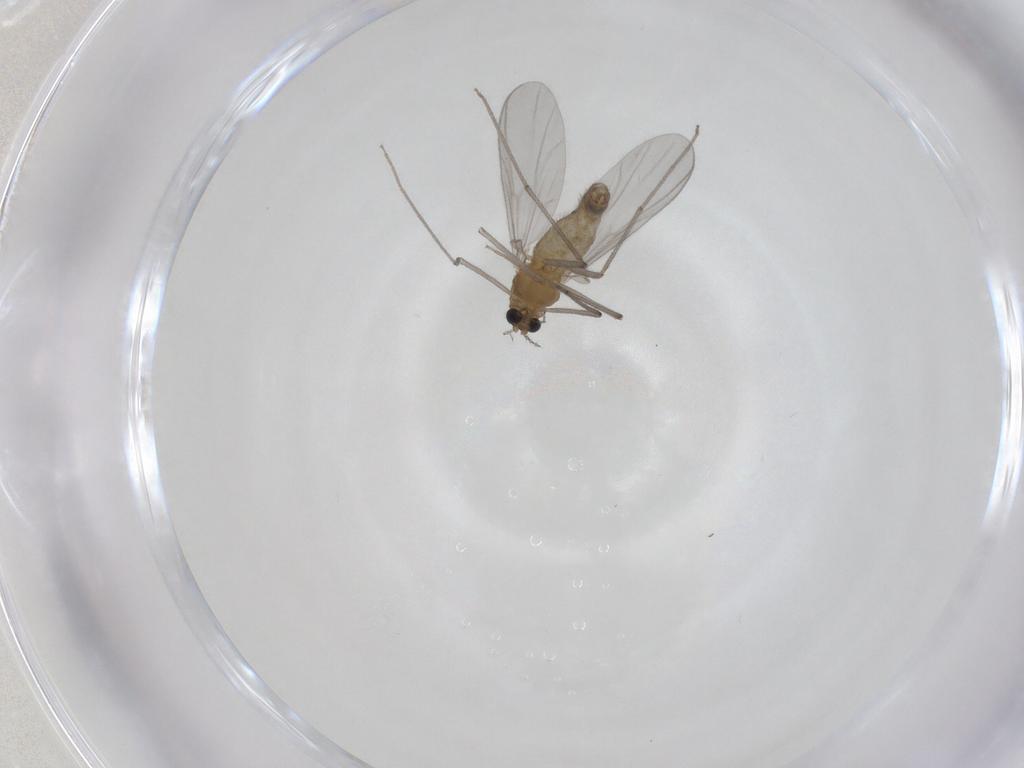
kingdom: Animalia
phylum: Arthropoda
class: Insecta
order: Diptera
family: Chironomidae
